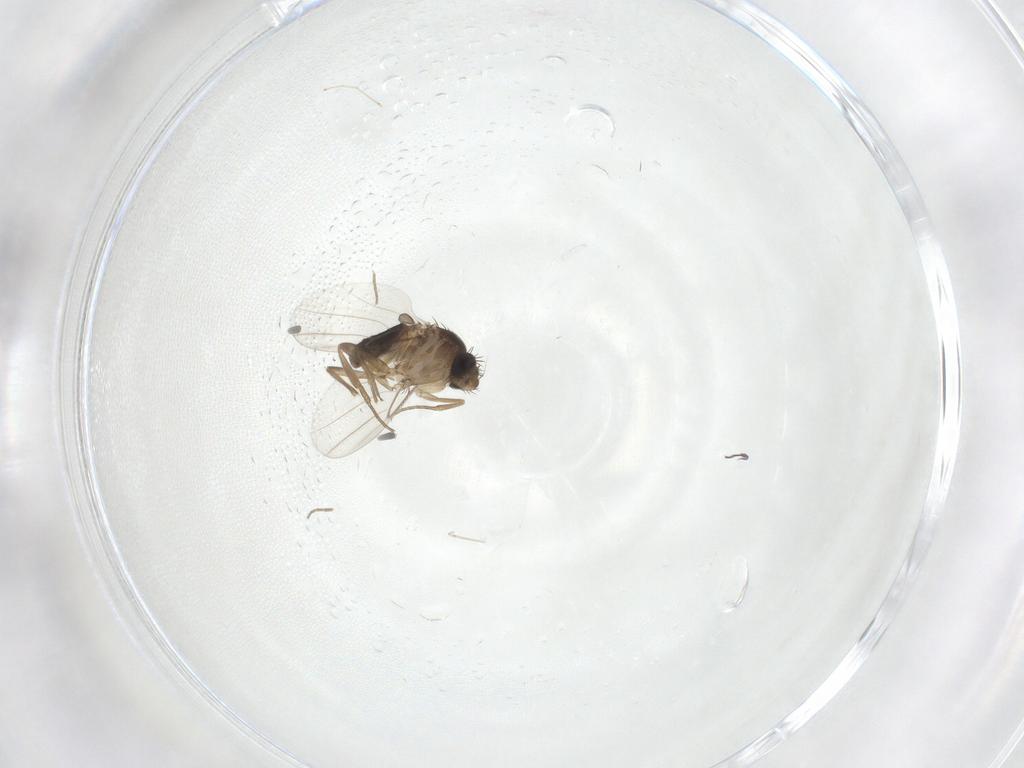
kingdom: Animalia
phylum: Arthropoda
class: Insecta
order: Diptera
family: Phoridae
